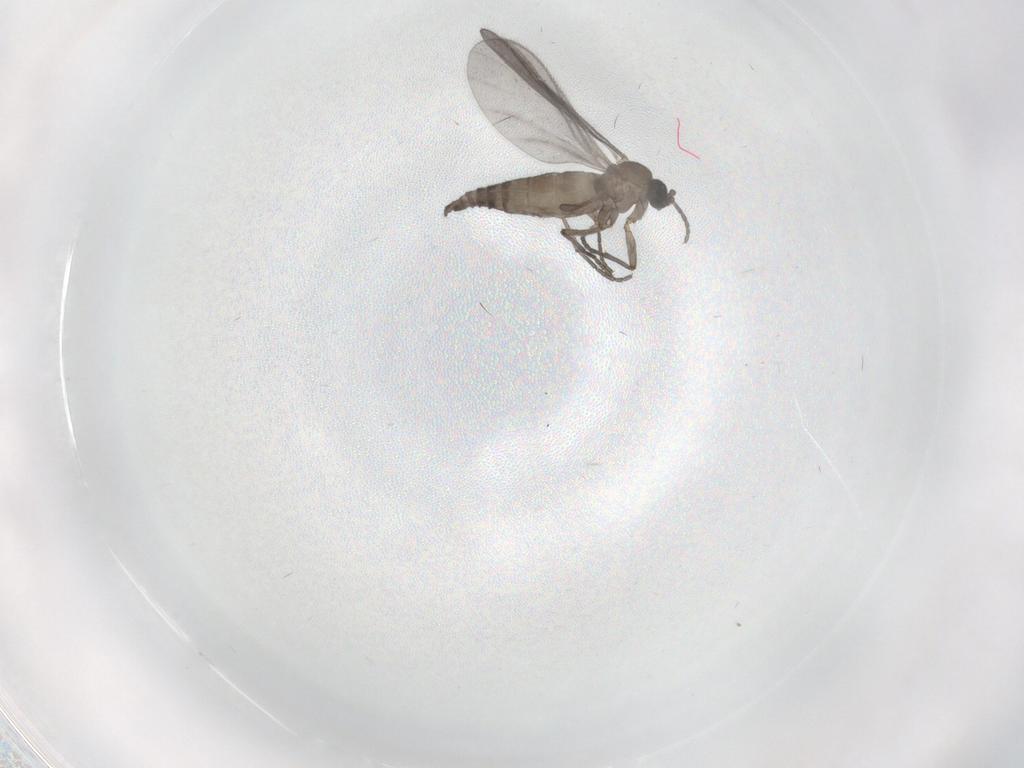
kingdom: Animalia
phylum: Arthropoda
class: Insecta
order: Diptera
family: Sciaridae
